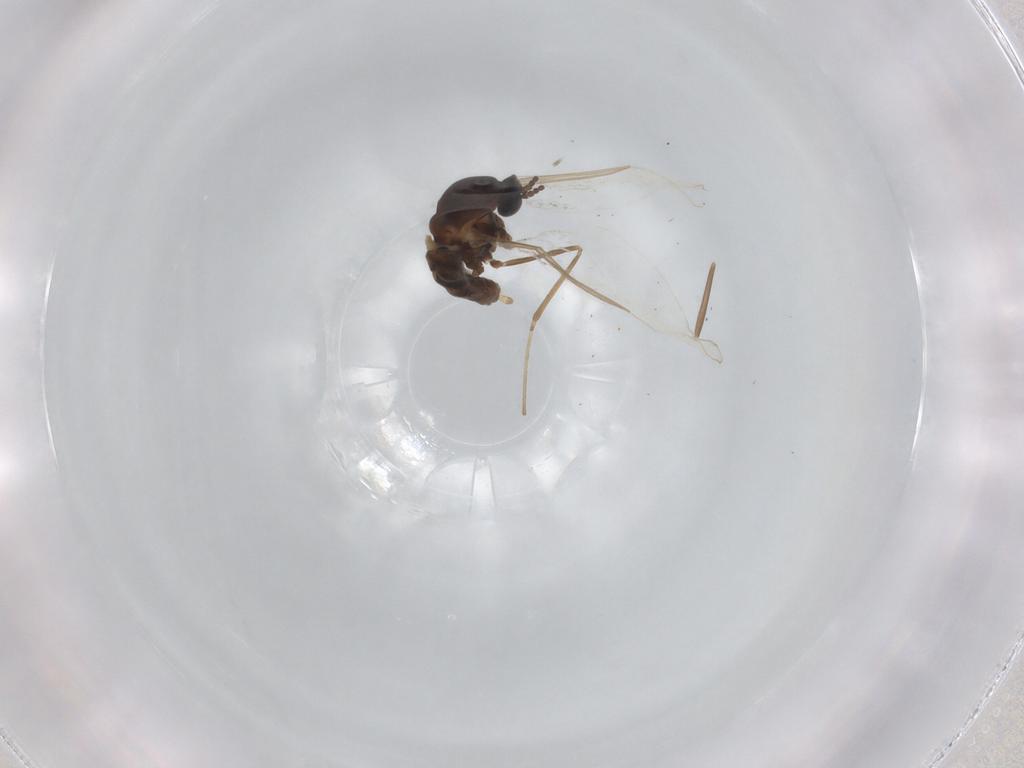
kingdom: Animalia
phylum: Arthropoda
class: Insecta
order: Diptera
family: Cecidomyiidae
